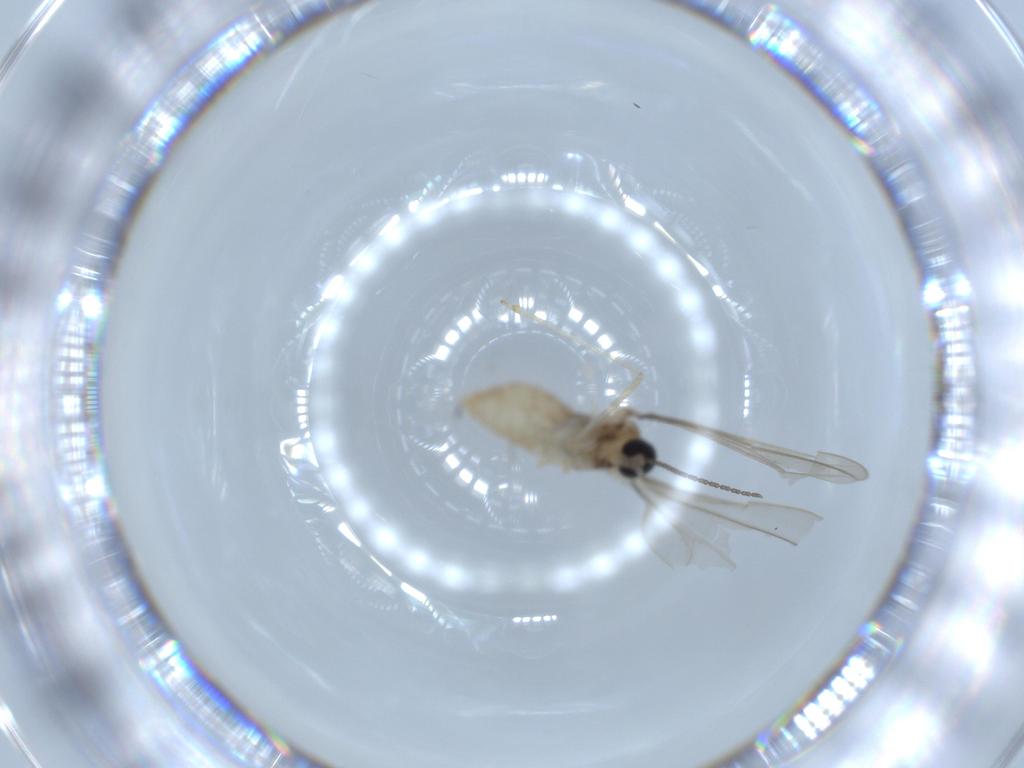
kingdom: Animalia
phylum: Arthropoda
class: Insecta
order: Diptera
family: Cecidomyiidae
